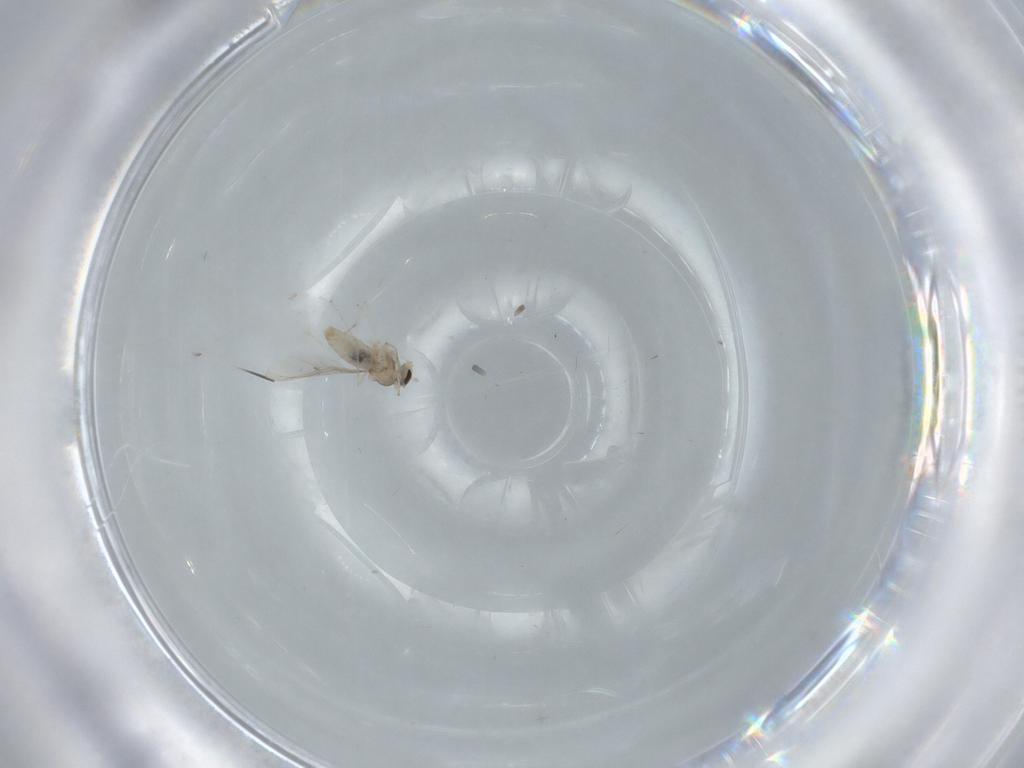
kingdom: Animalia
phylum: Arthropoda
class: Insecta
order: Diptera
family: Cecidomyiidae
